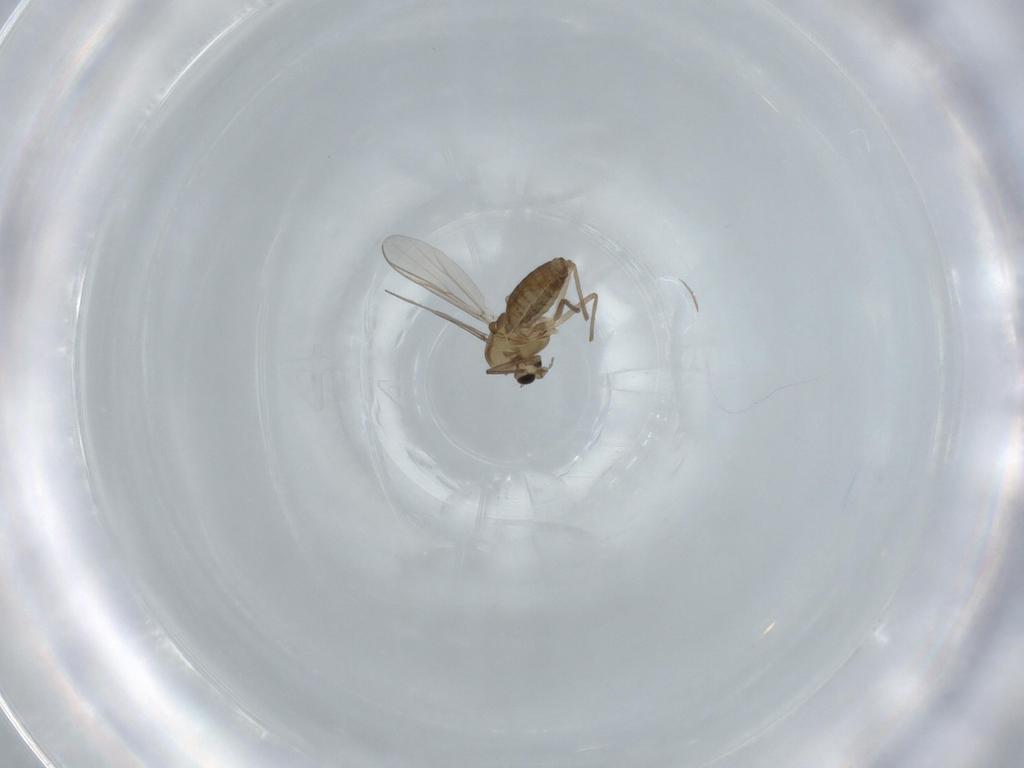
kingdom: Animalia
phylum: Arthropoda
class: Insecta
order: Diptera
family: Chironomidae
